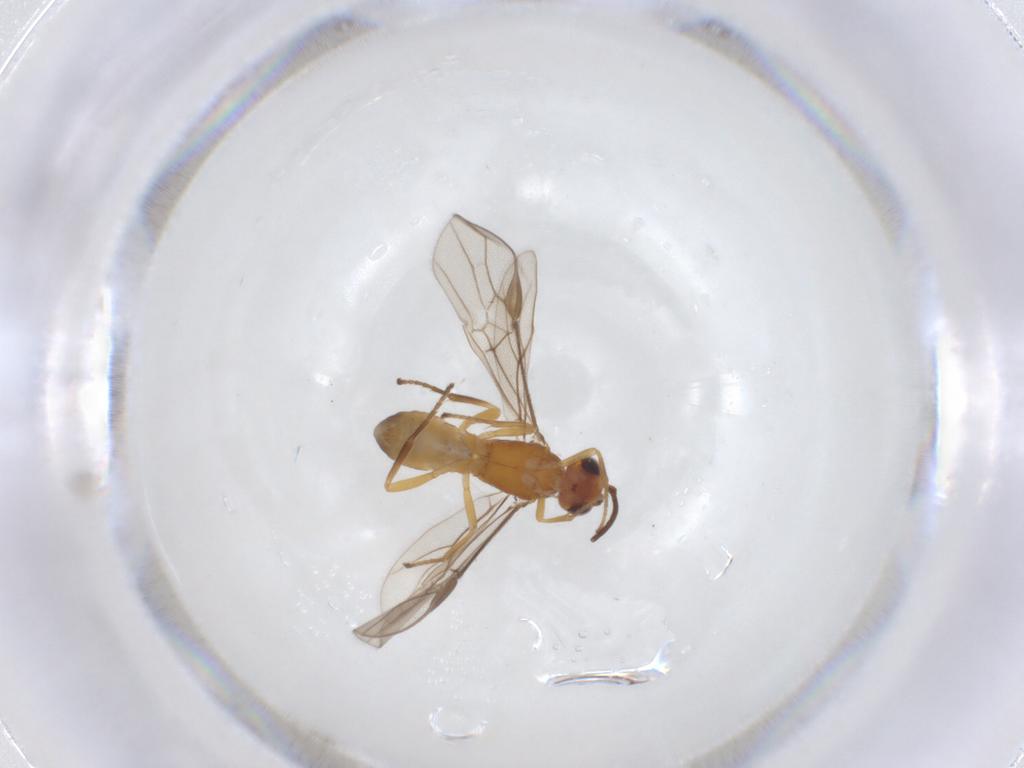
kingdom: Animalia
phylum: Arthropoda
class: Insecta
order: Hymenoptera
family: Braconidae
